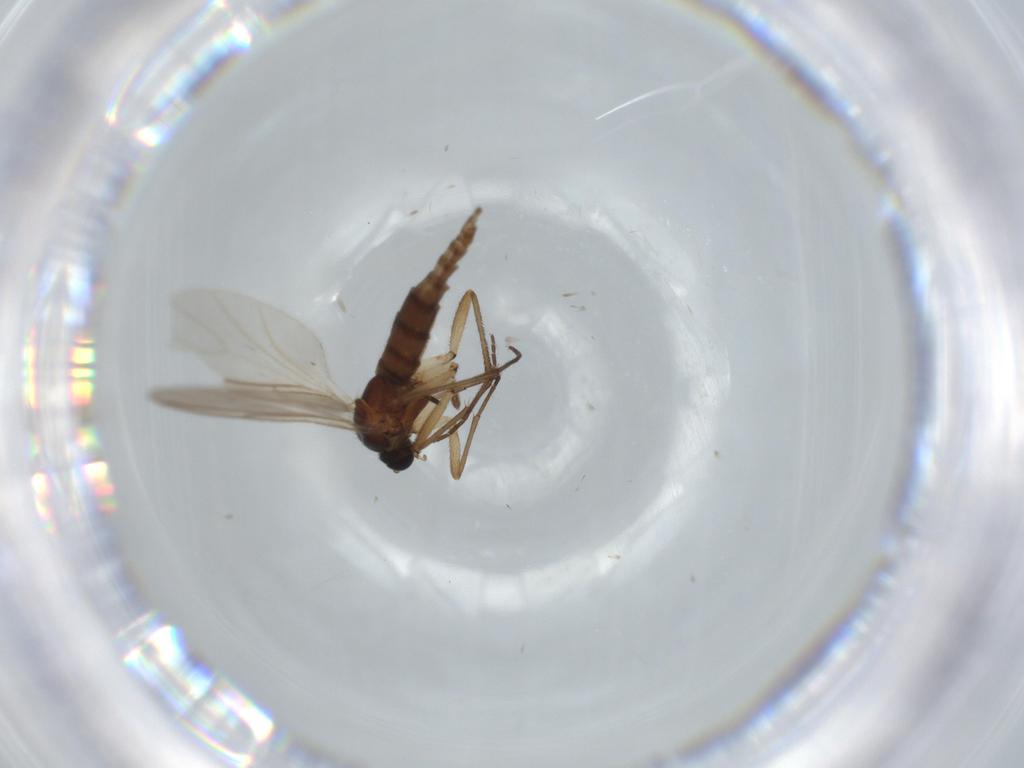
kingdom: Animalia
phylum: Arthropoda
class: Insecta
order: Diptera
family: Sciaridae
